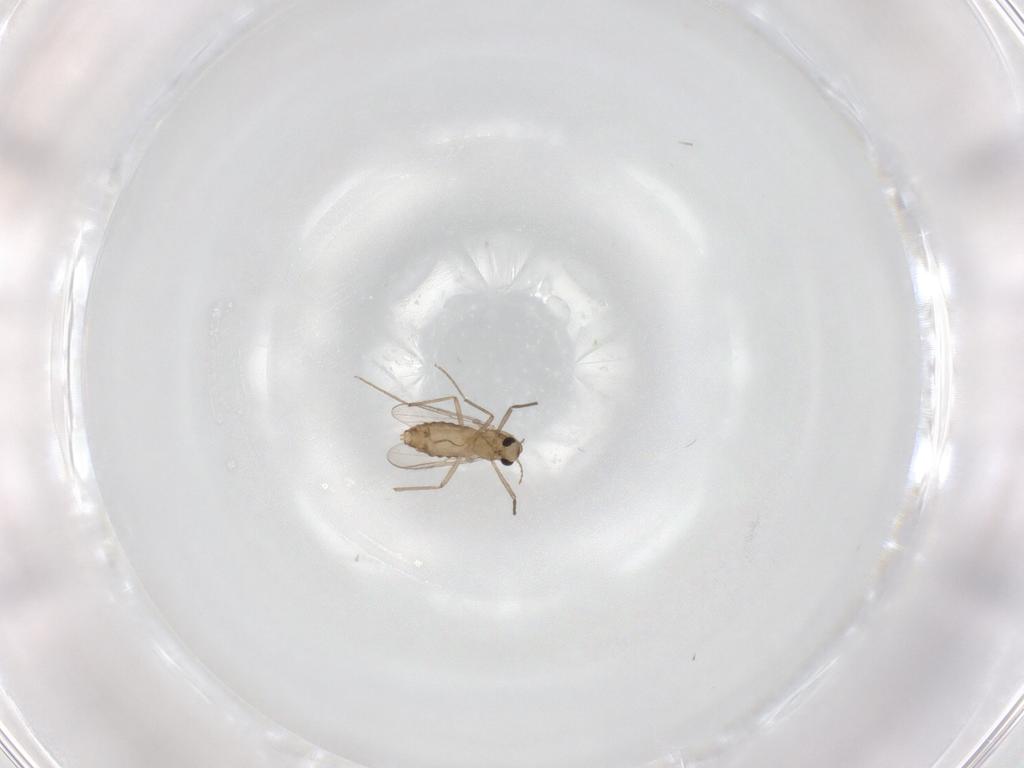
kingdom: Animalia
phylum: Arthropoda
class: Insecta
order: Diptera
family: Chironomidae
